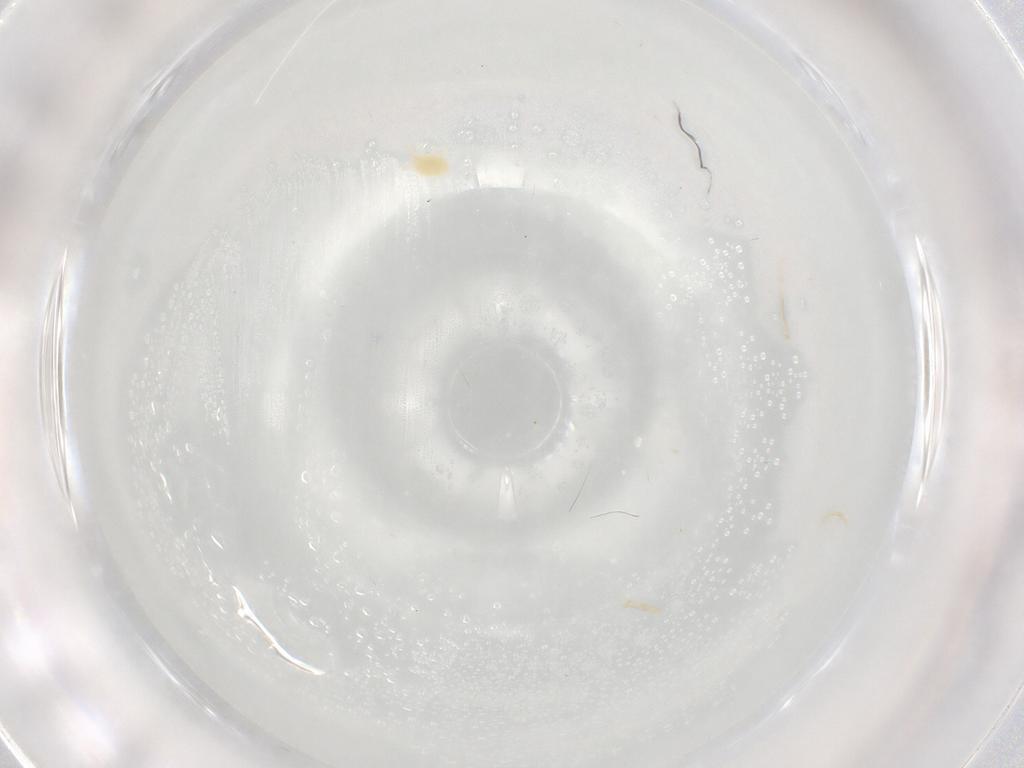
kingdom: Animalia
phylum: Arthropoda
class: Arachnida
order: Trombidiformes
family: Eupodidae
